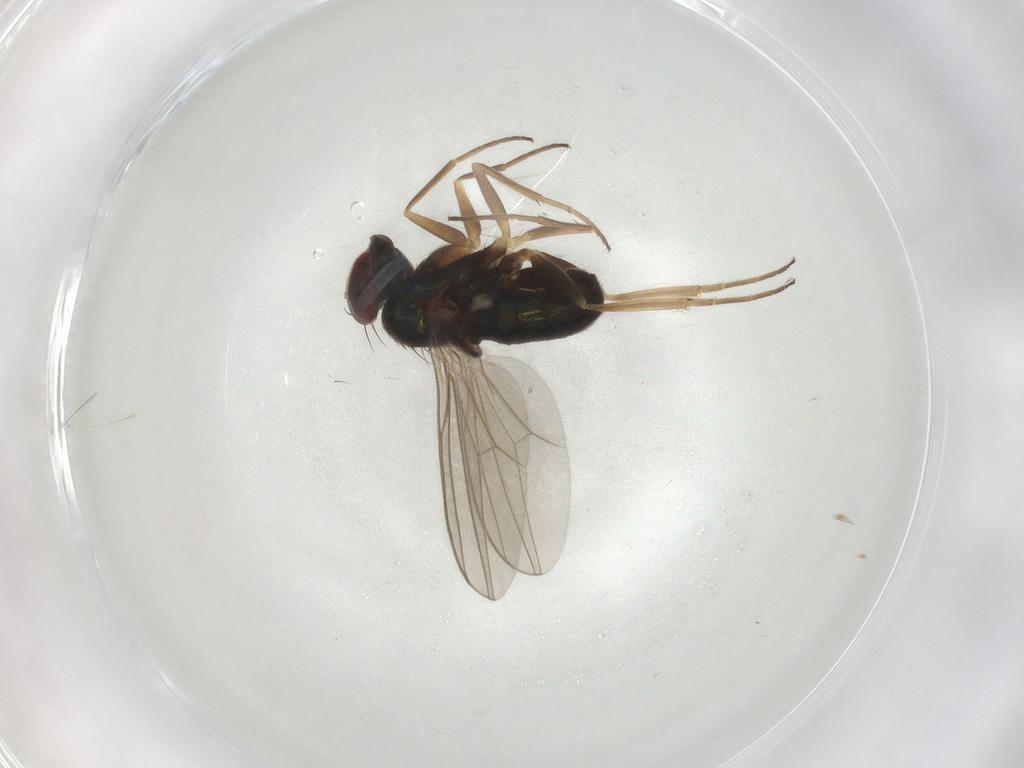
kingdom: Animalia
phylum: Arthropoda
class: Insecta
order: Diptera
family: Dolichopodidae
